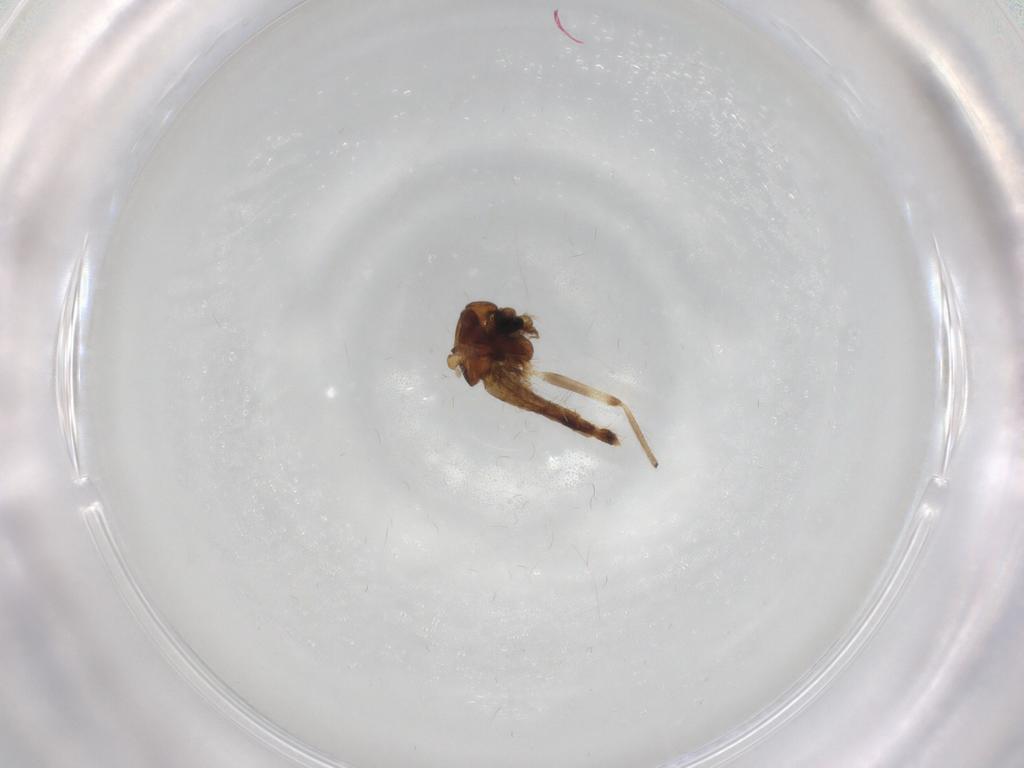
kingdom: Animalia
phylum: Arthropoda
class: Insecta
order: Diptera
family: Chironomidae
